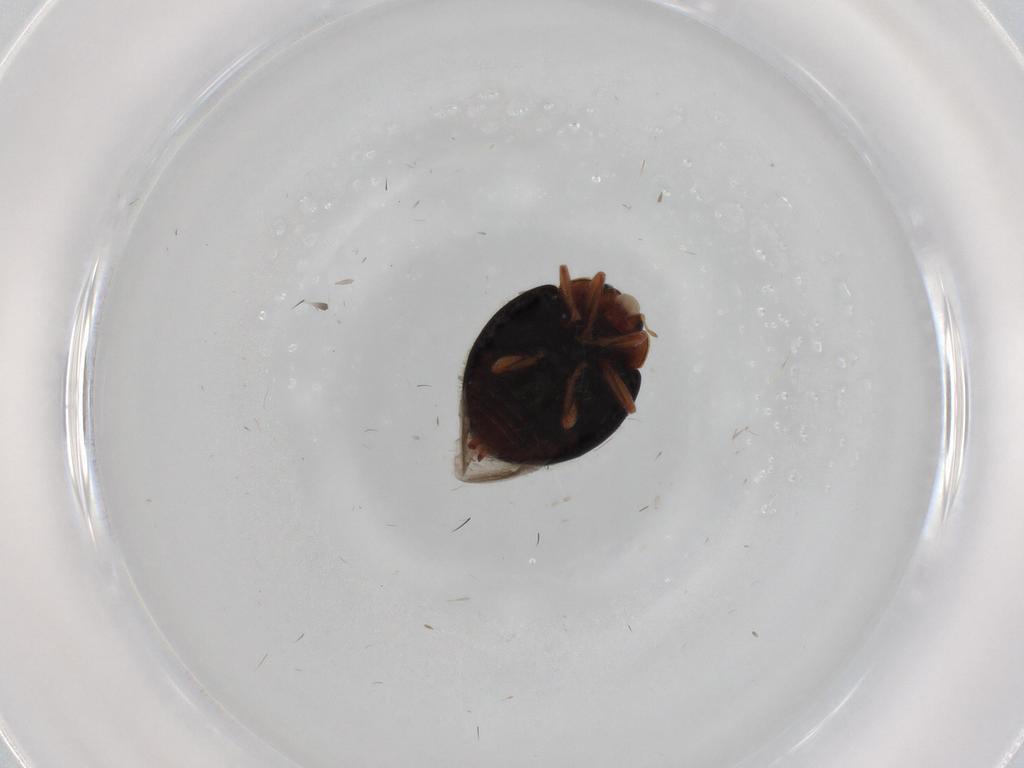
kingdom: Animalia
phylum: Arthropoda
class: Insecta
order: Coleoptera
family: Coccinellidae
